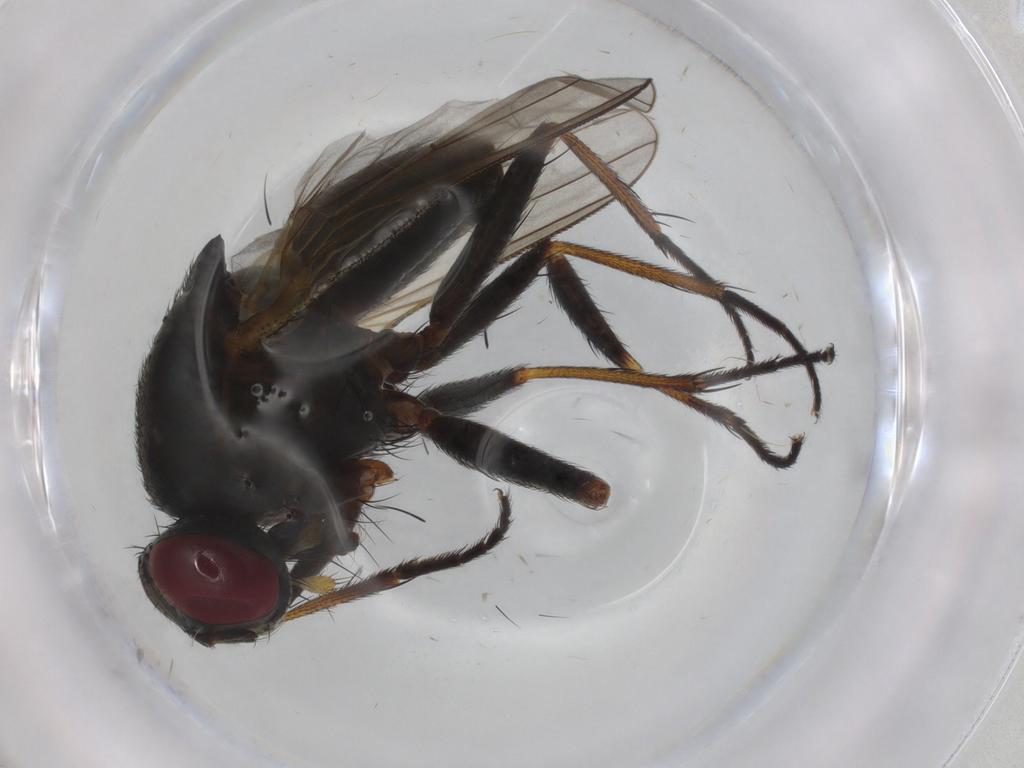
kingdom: Animalia
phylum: Arthropoda
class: Insecta
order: Diptera
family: Muscidae
